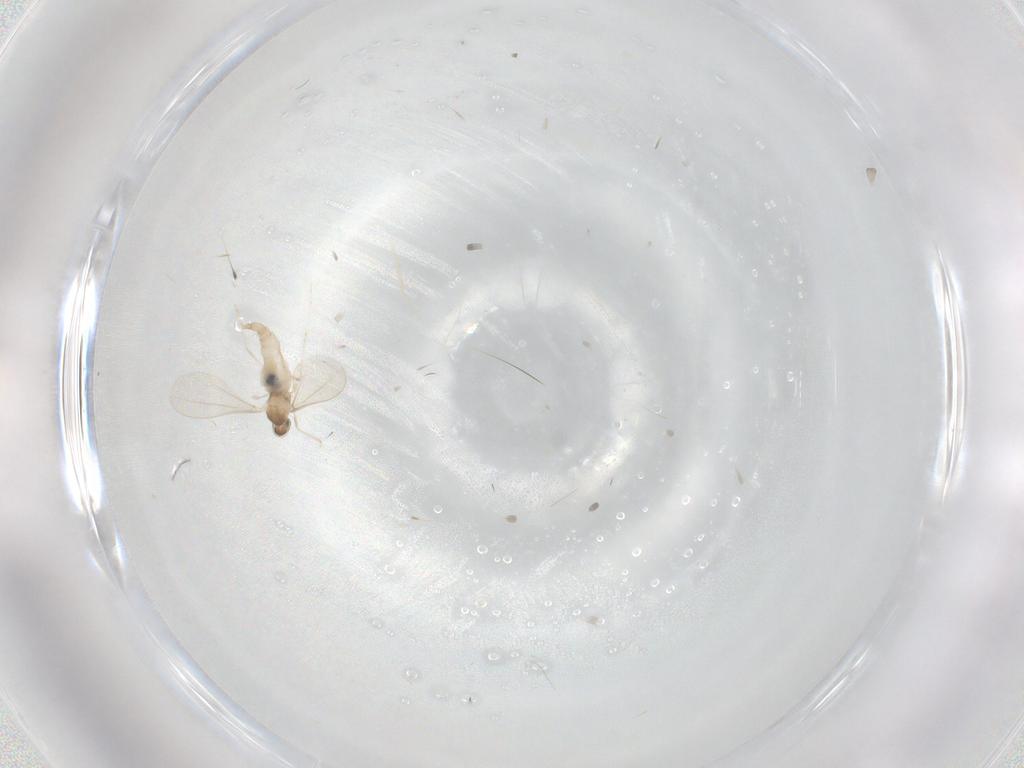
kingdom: Animalia
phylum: Arthropoda
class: Insecta
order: Diptera
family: Cecidomyiidae
